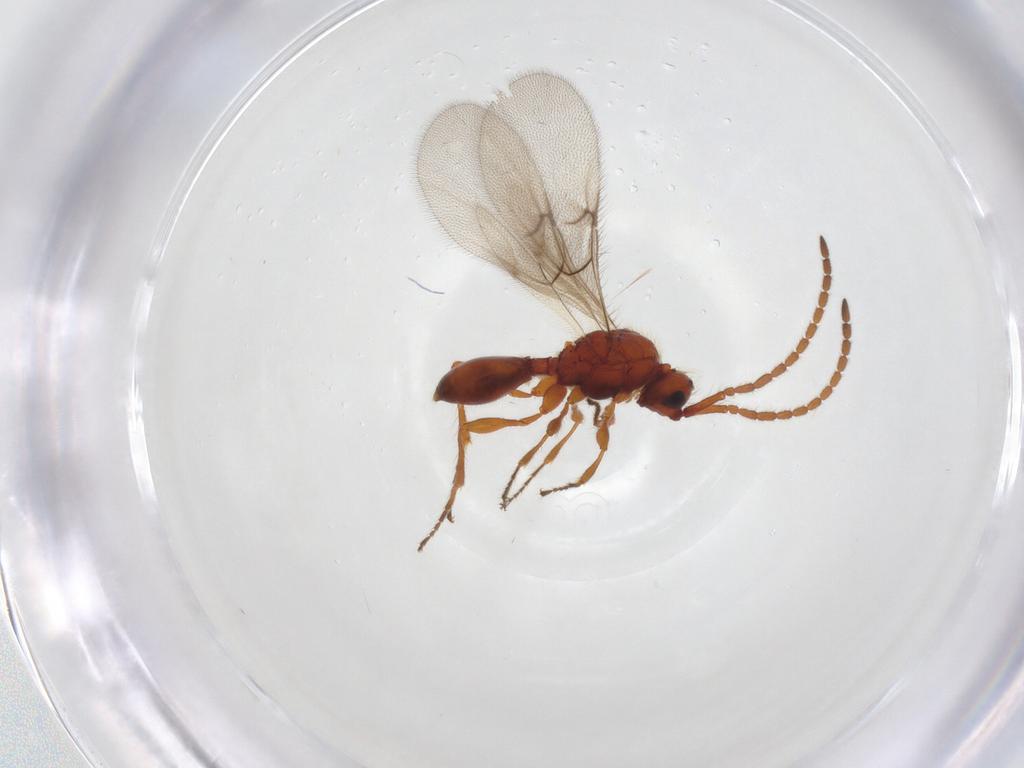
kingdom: Animalia
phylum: Arthropoda
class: Insecta
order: Hymenoptera
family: Diapriidae
